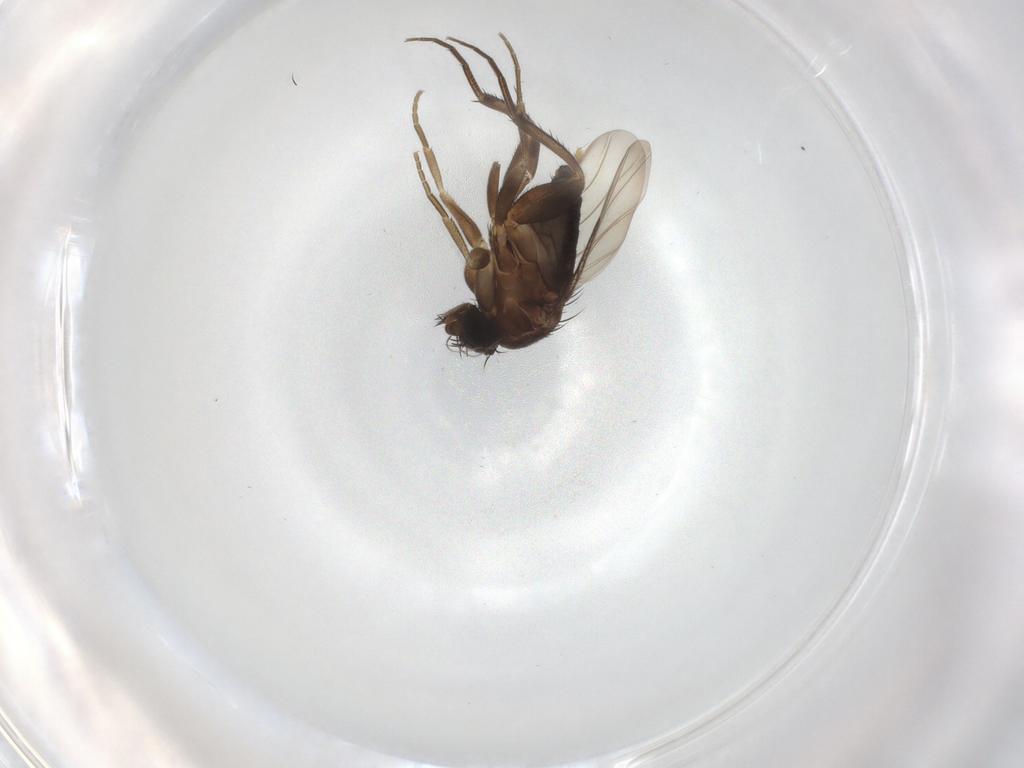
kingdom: Animalia
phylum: Arthropoda
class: Insecta
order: Diptera
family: Phoridae
